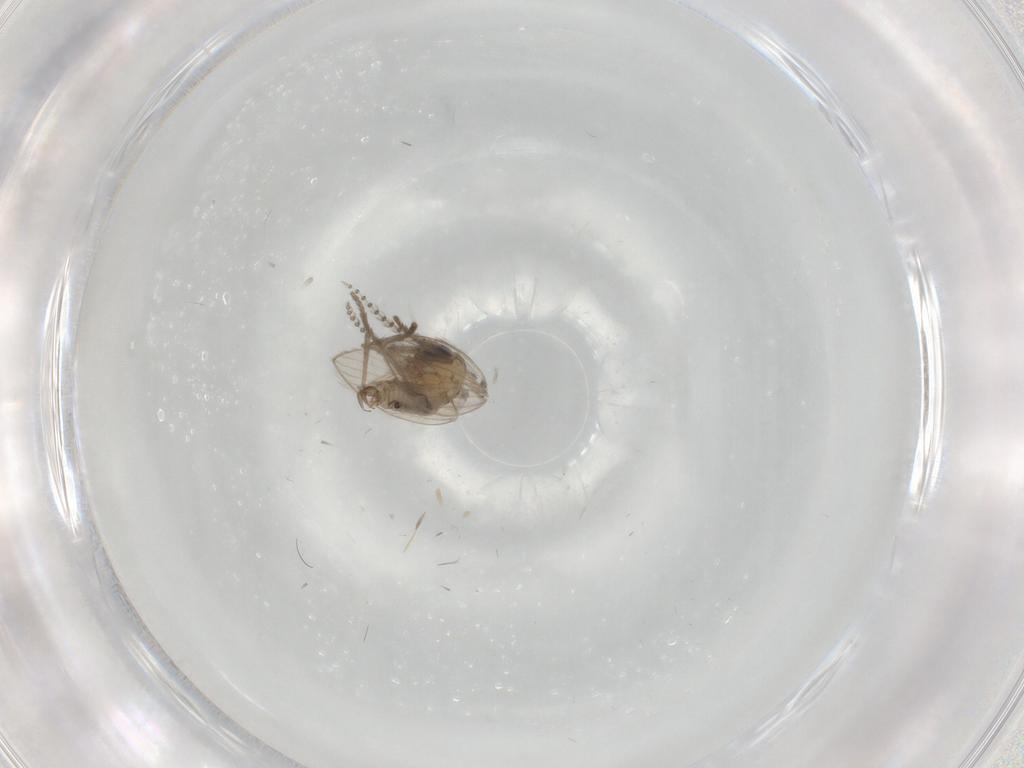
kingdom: Animalia
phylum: Arthropoda
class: Insecta
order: Diptera
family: Psychodidae
